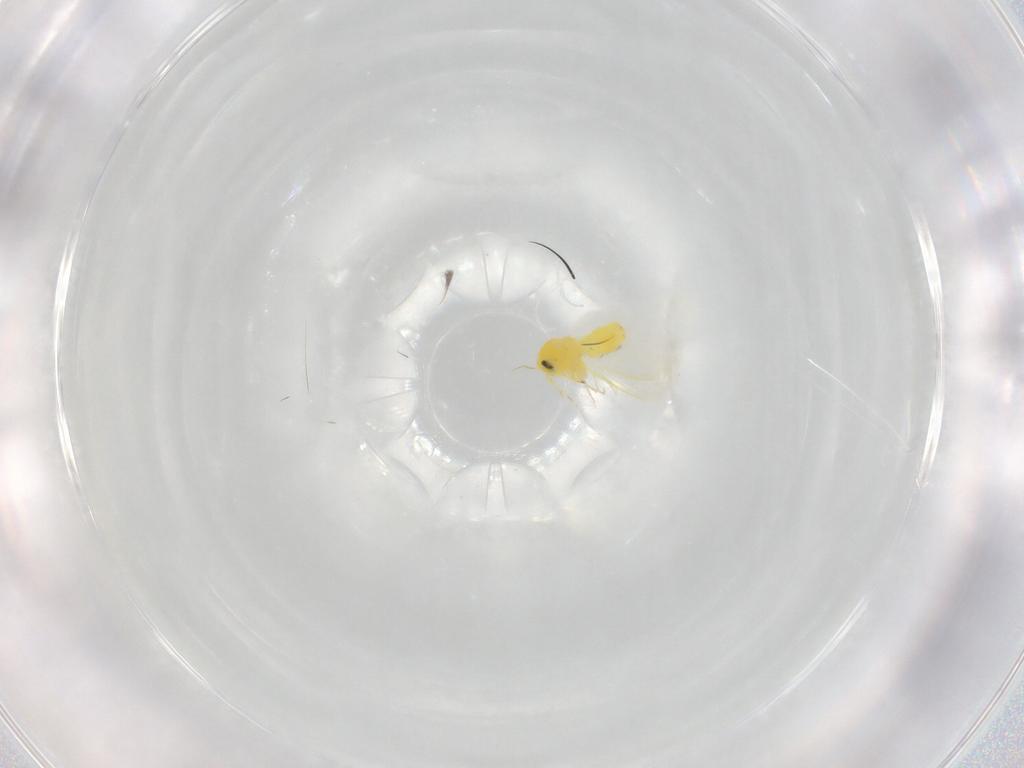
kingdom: Animalia
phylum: Arthropoda
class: Insecta
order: Hemiptera
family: Aleyrodidae
